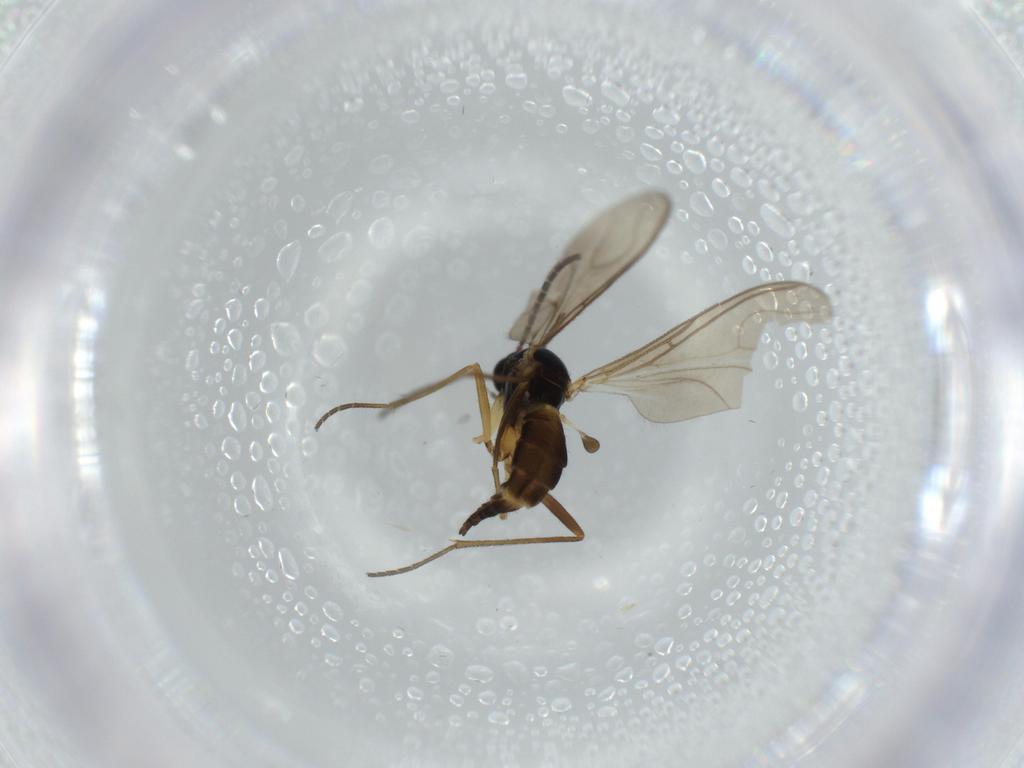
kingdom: Animalia
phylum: Arthropoda
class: Insecta
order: Diptera
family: Sciaridae
